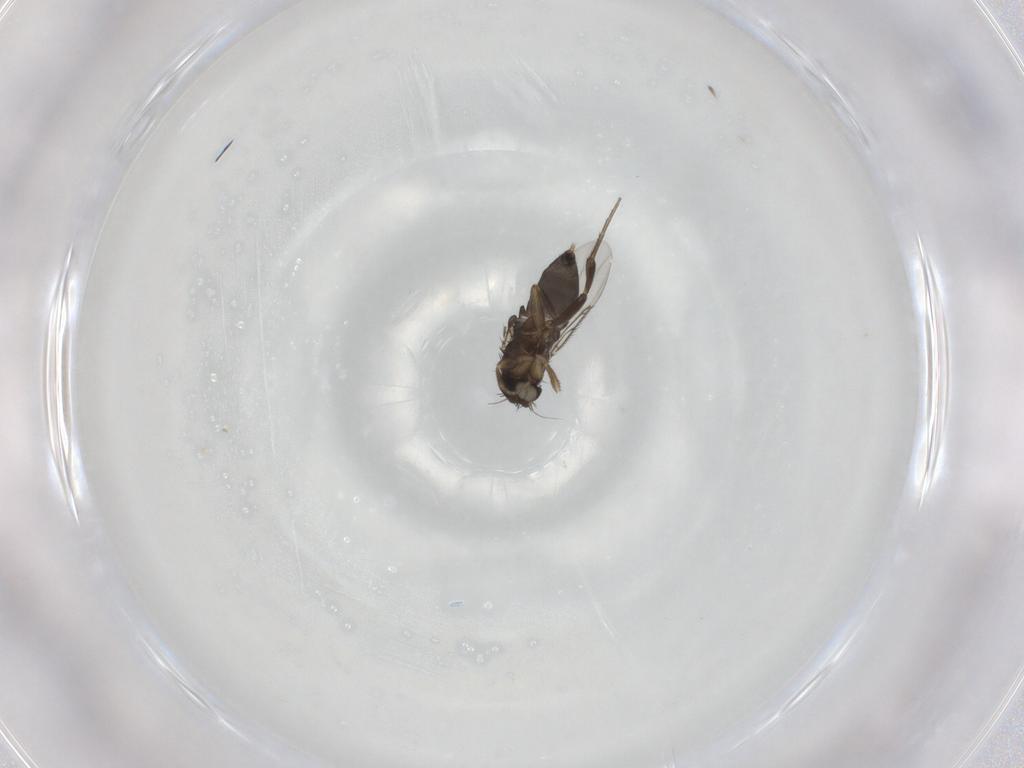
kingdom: Animalia
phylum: Arthropoda
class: Insecta
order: Diptera
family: Phoridae
